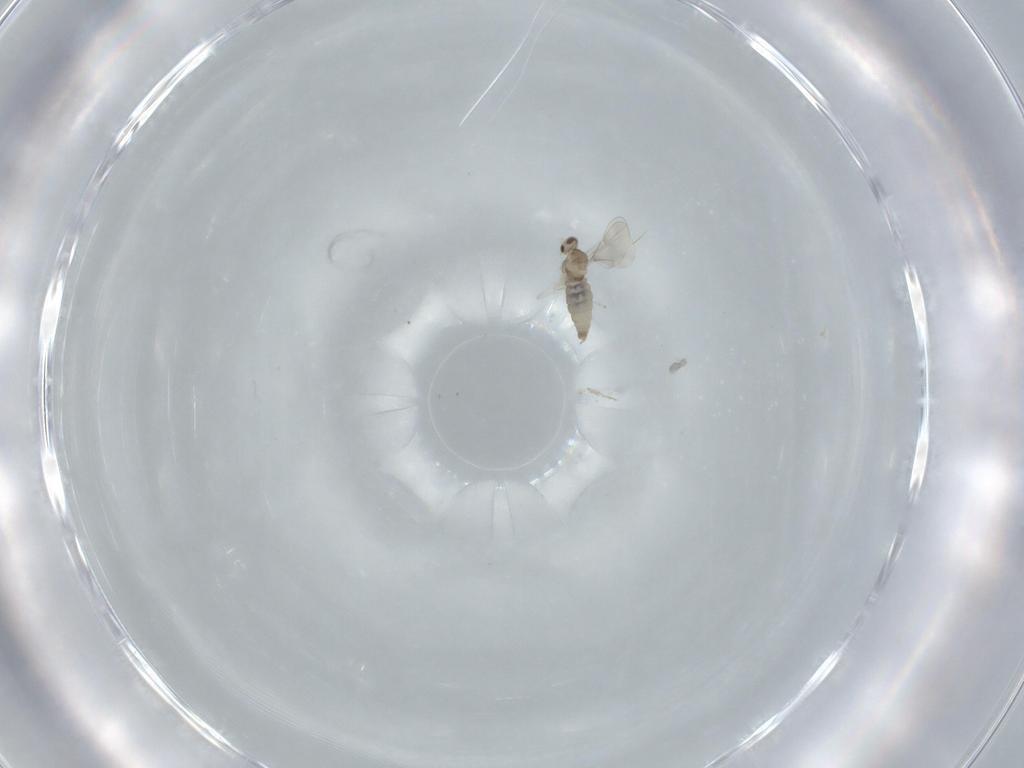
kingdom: Animalia
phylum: Arthropoda
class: Insecta
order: Diptera
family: Cecidomyiidae
